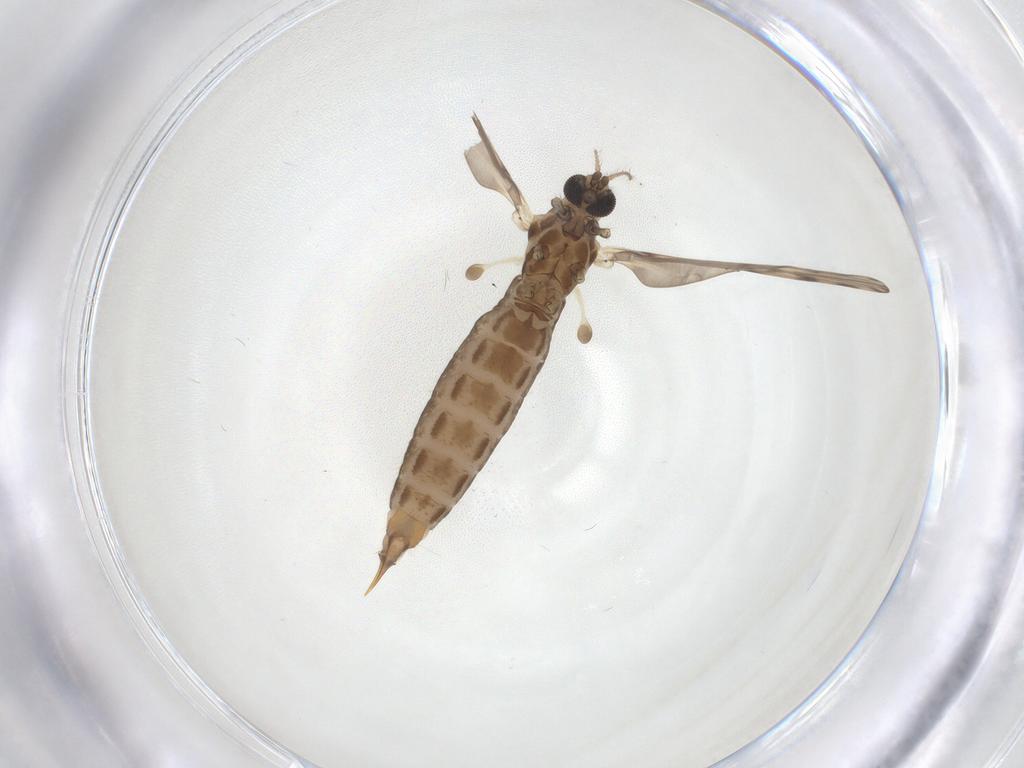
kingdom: Animalia
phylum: Arthropoda
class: Insecta
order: Diptera
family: Limoniidae
